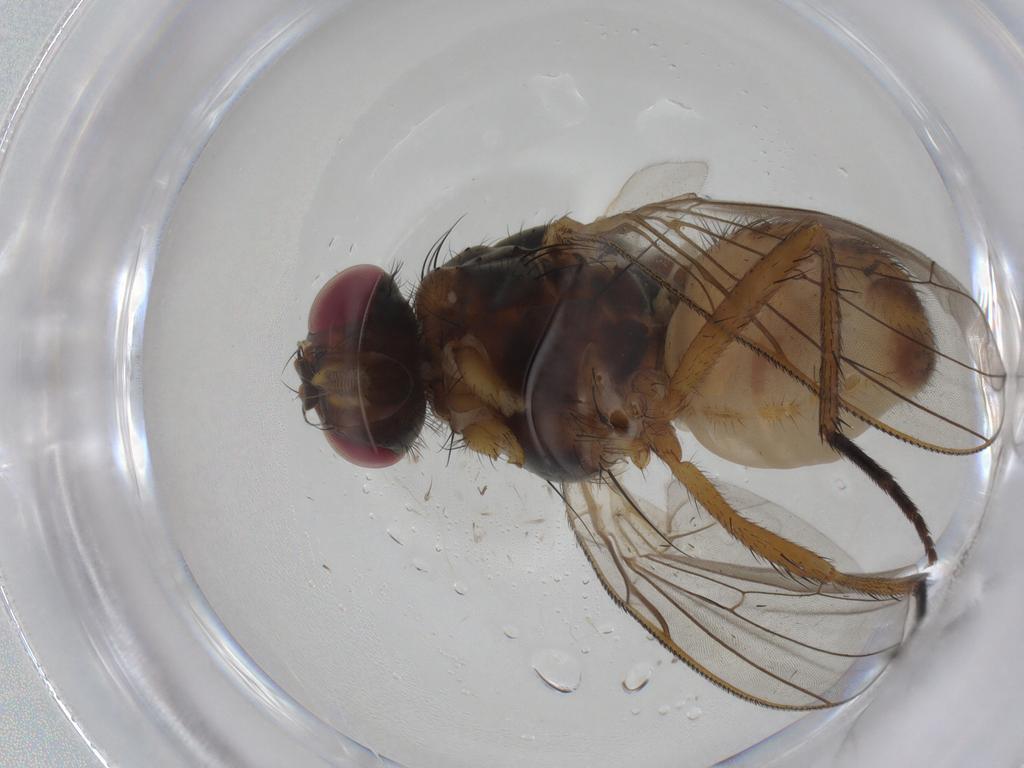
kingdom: Animalia
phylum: Arthropoda
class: Insecta
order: Diptera
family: Anthomyiidae
